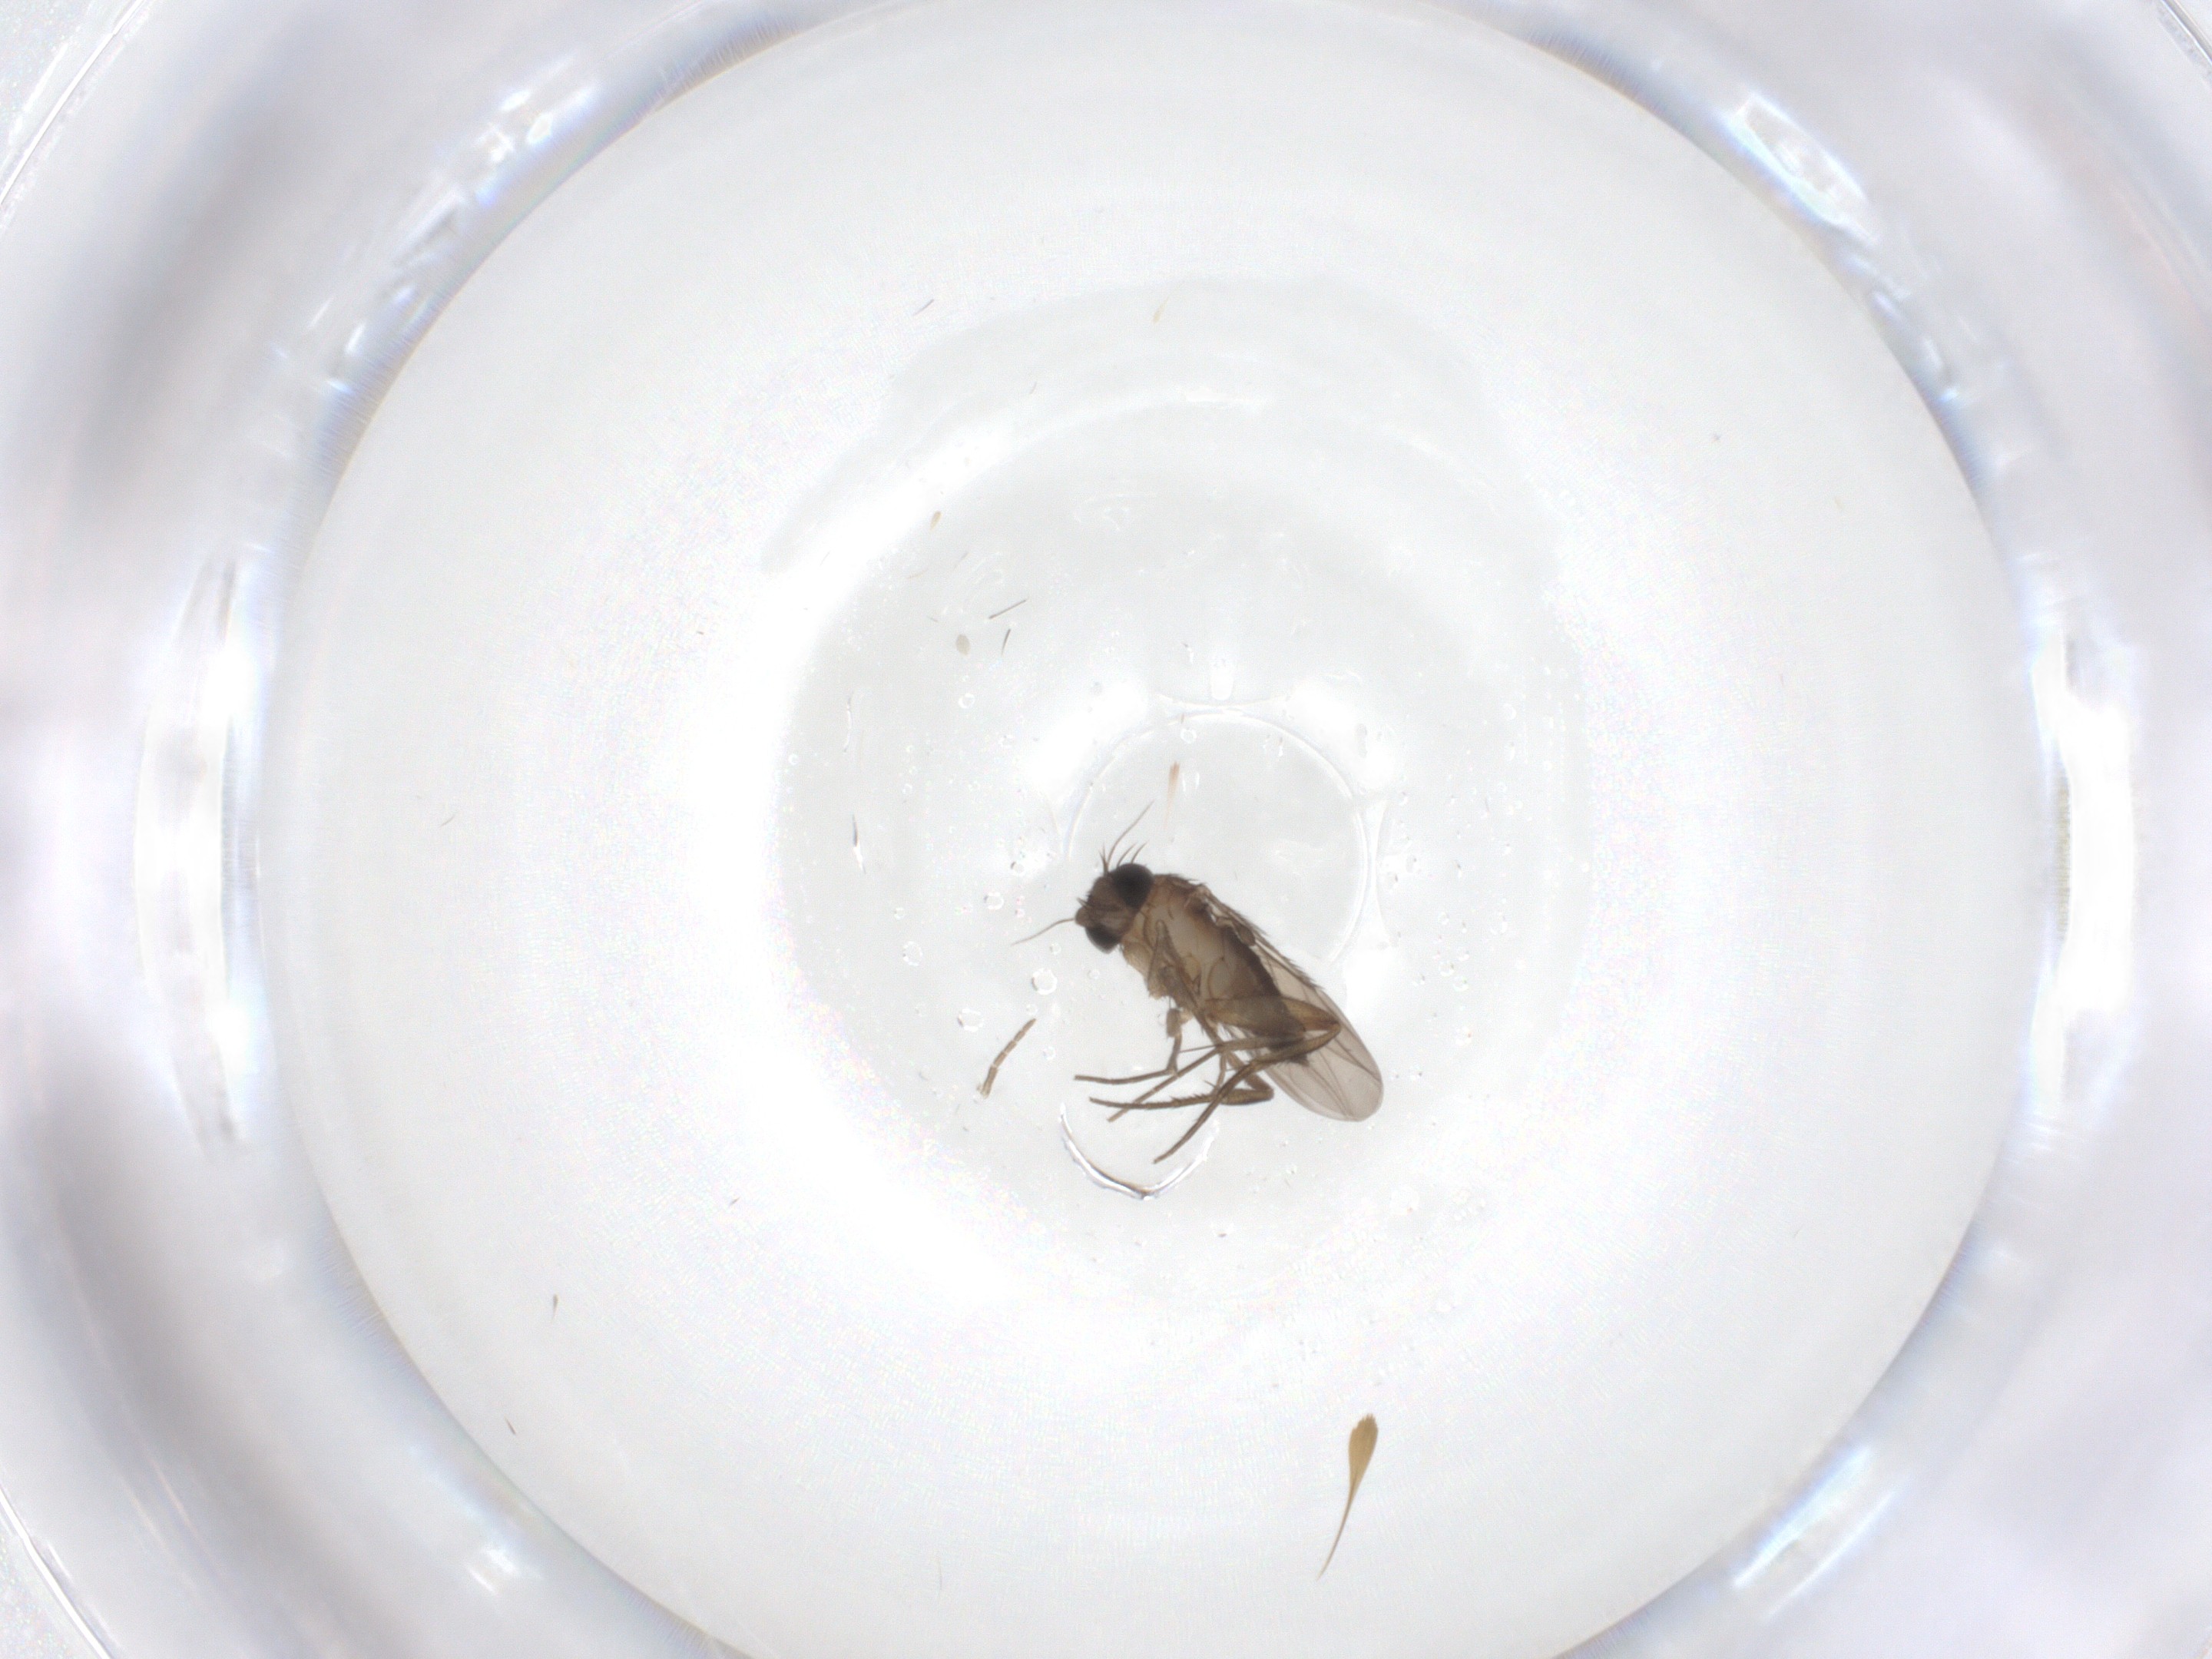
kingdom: Animalia
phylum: Arthropoda
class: Insecta
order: Diptera
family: Phoridae
